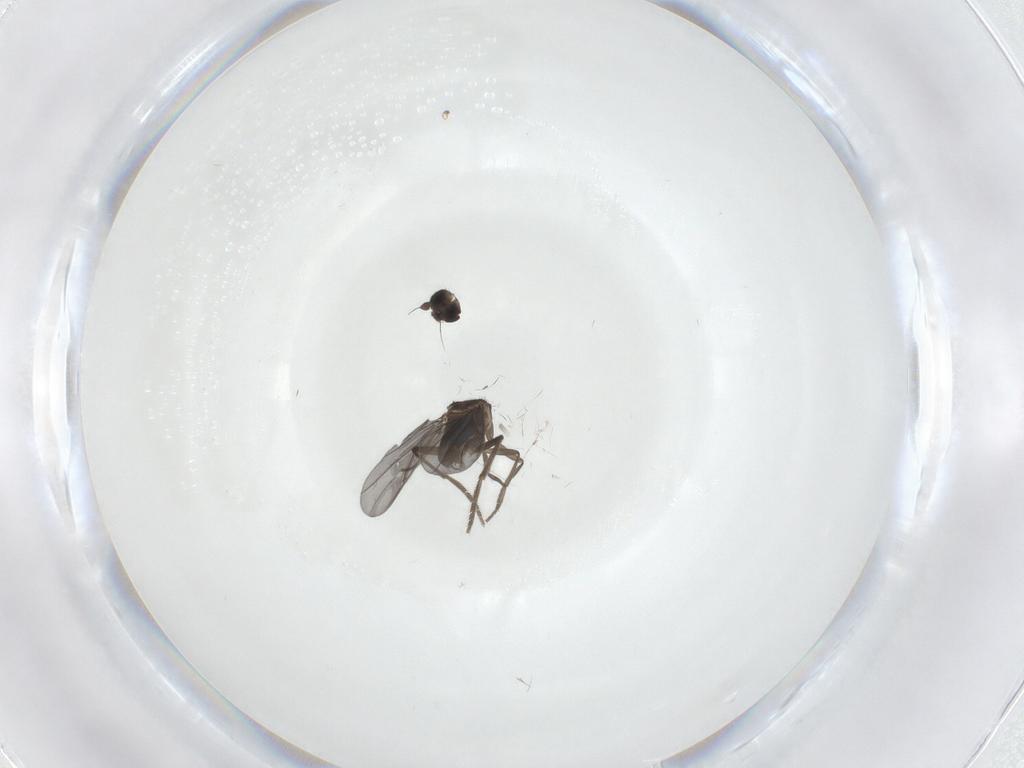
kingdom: Animalia
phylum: Arthropoda
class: Insecta
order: Diptera
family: Phoridae
